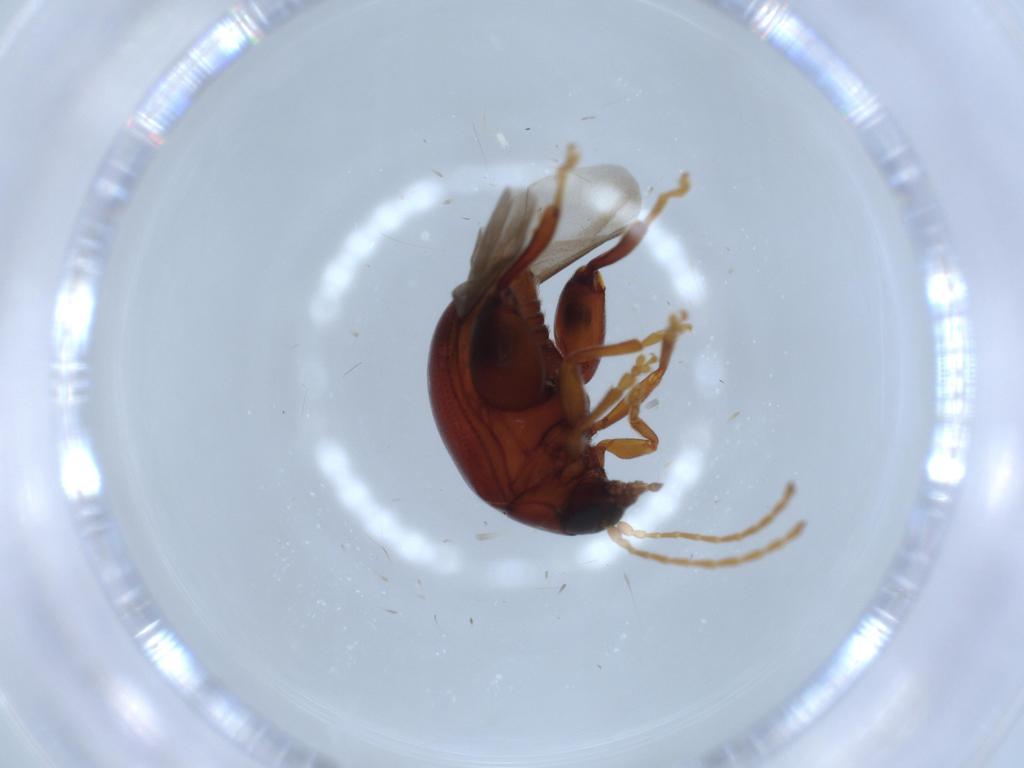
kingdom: Animalia
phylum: Arthropoda
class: Insecta
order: Coleoptera
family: Chrysomelidae
